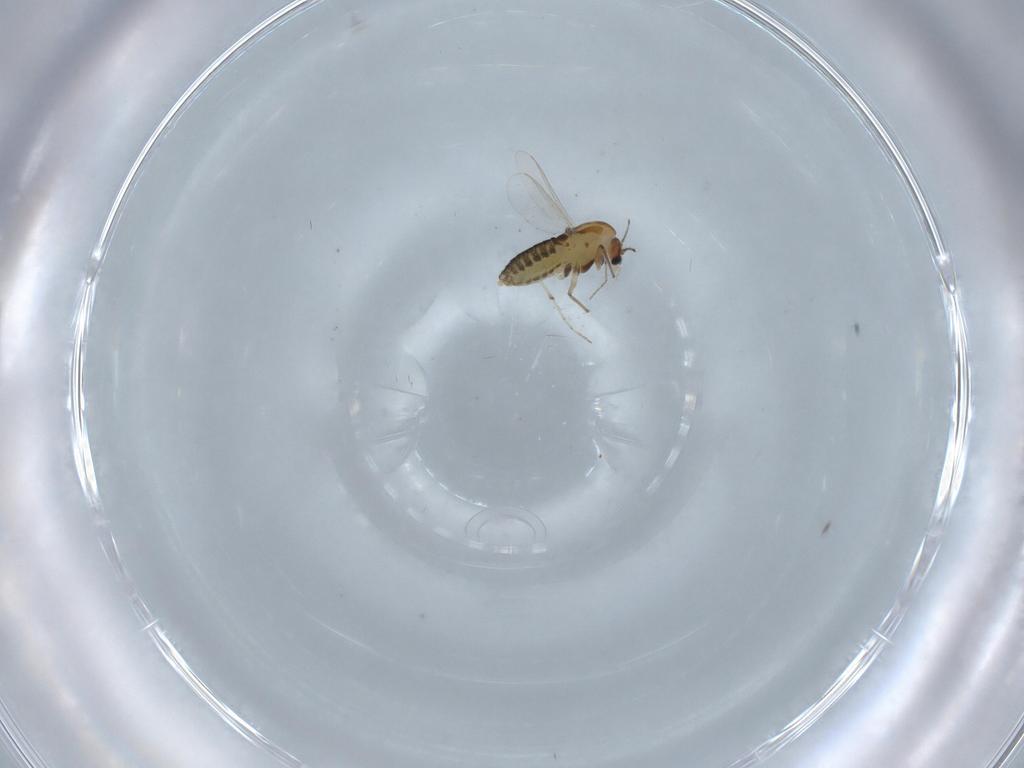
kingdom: Animalia
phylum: Arthropoda
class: Insecta
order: Diptera
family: Chironomidae
